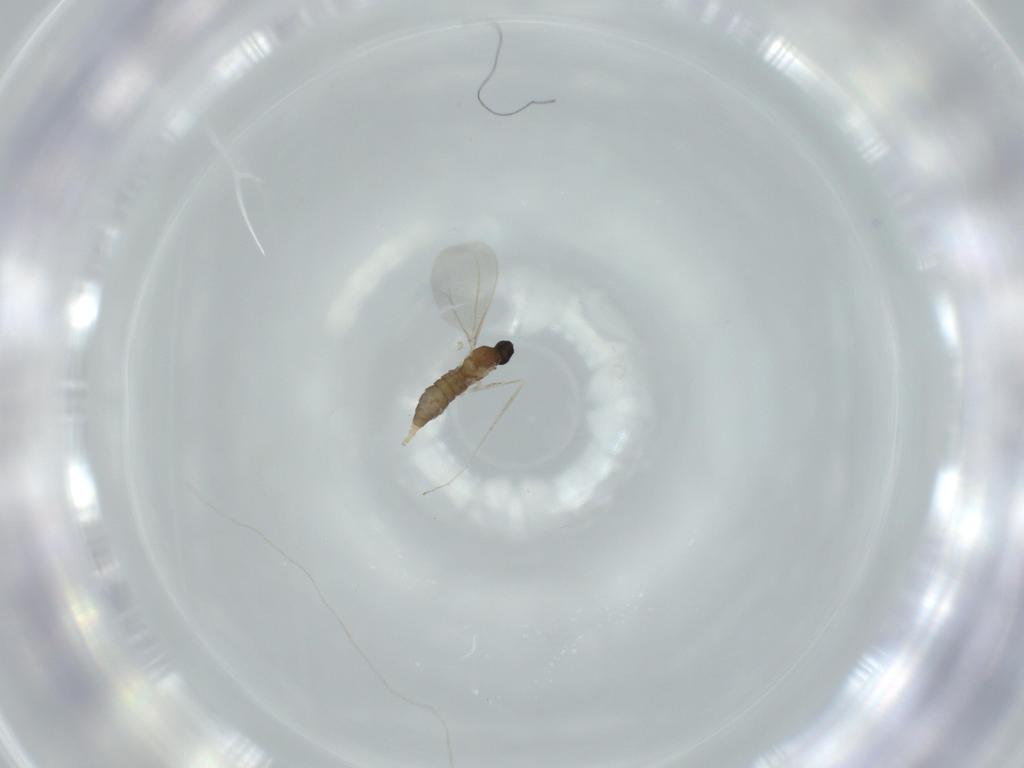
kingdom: Animalia
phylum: Arthropoda
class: Insecta
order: Diptera
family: Cecidomyiidae
